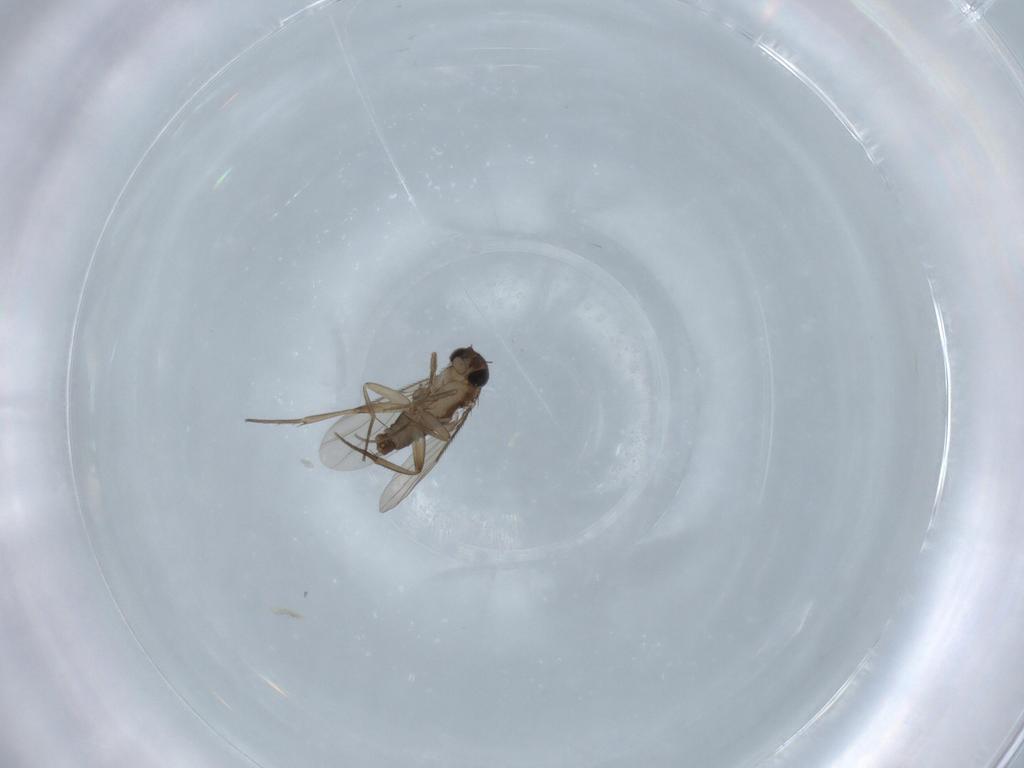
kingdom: Animalia
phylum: Arthropoda
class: Insecta
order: Diptera
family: Phoridae
